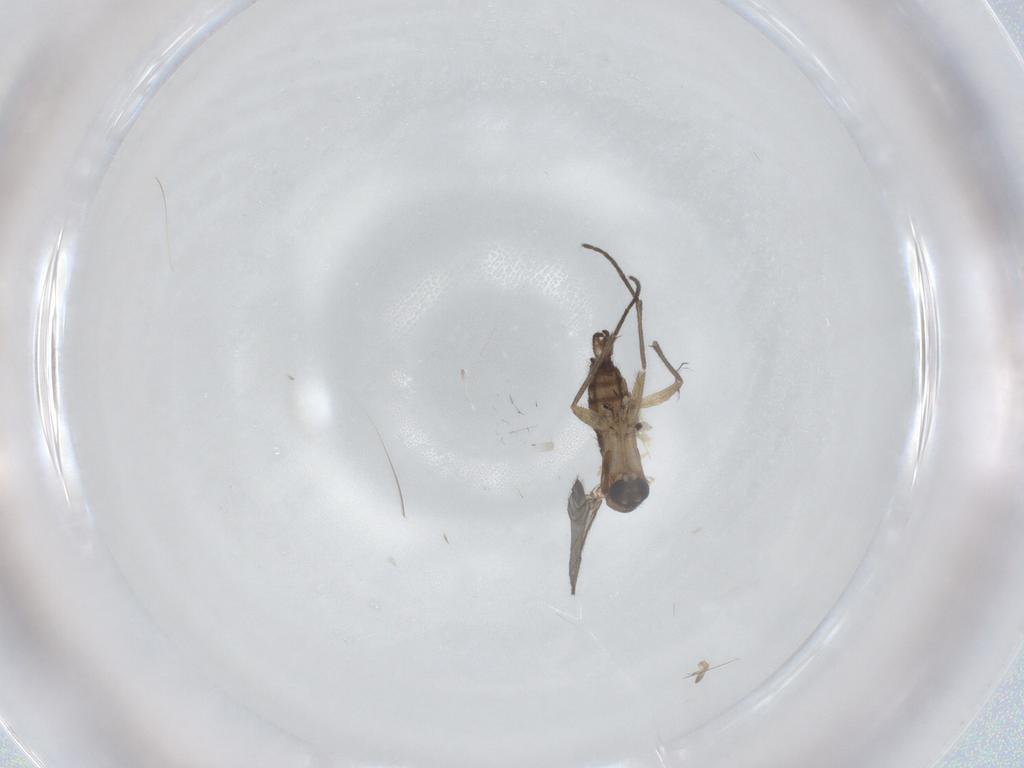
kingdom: Animalia
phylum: Arthropoda
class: Insecta
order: Diptera
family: Sciaridae
